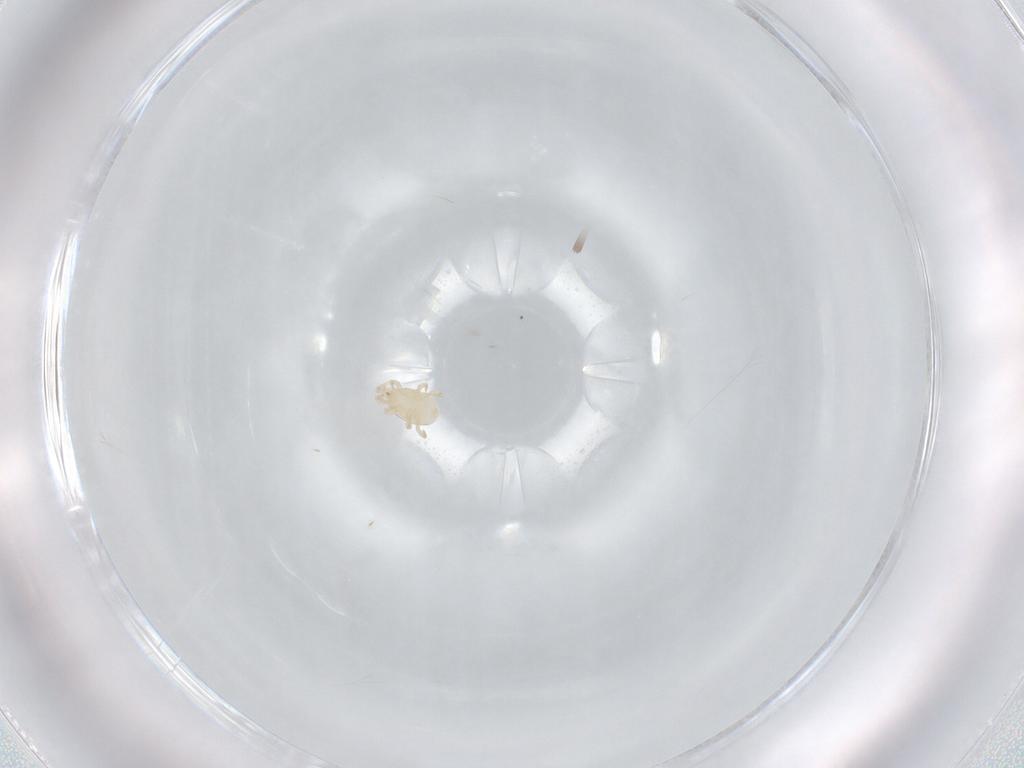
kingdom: Animalia
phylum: Arthropoda
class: Arachnida
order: Mesostigmata
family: Melicharidae
